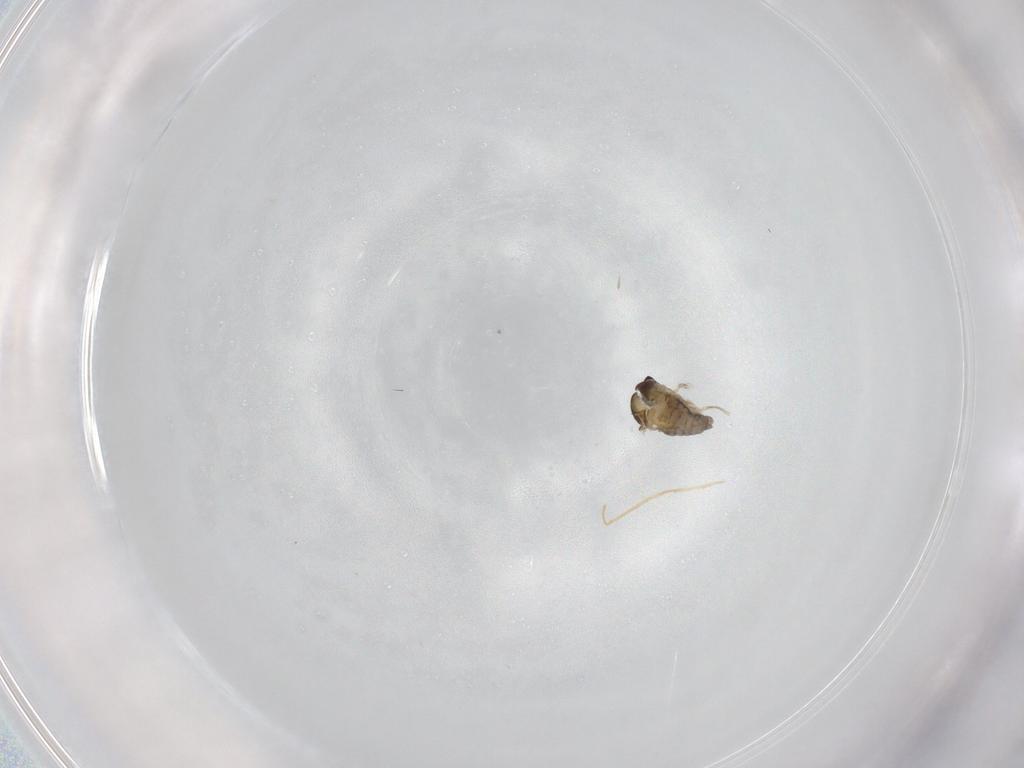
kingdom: Animalia
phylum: Arthropoda
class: Insecta
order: Diptera
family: Cecidomyiidae
